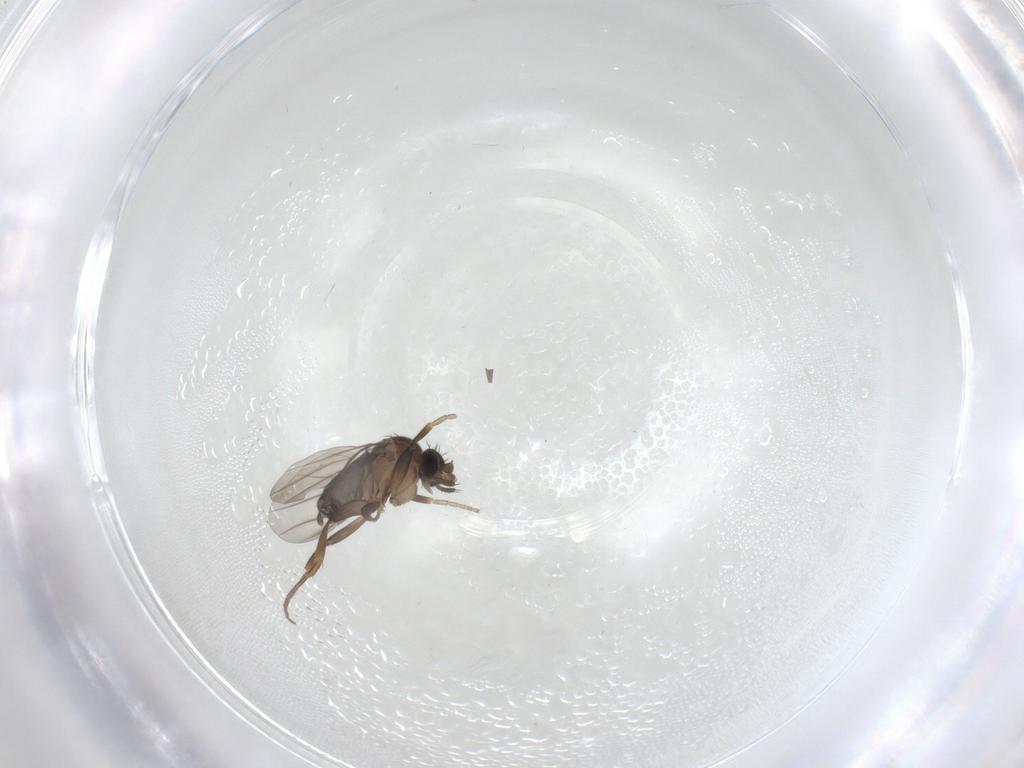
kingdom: Animalia
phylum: Arthropoda
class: Insecta
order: Diptera
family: Phoridae
